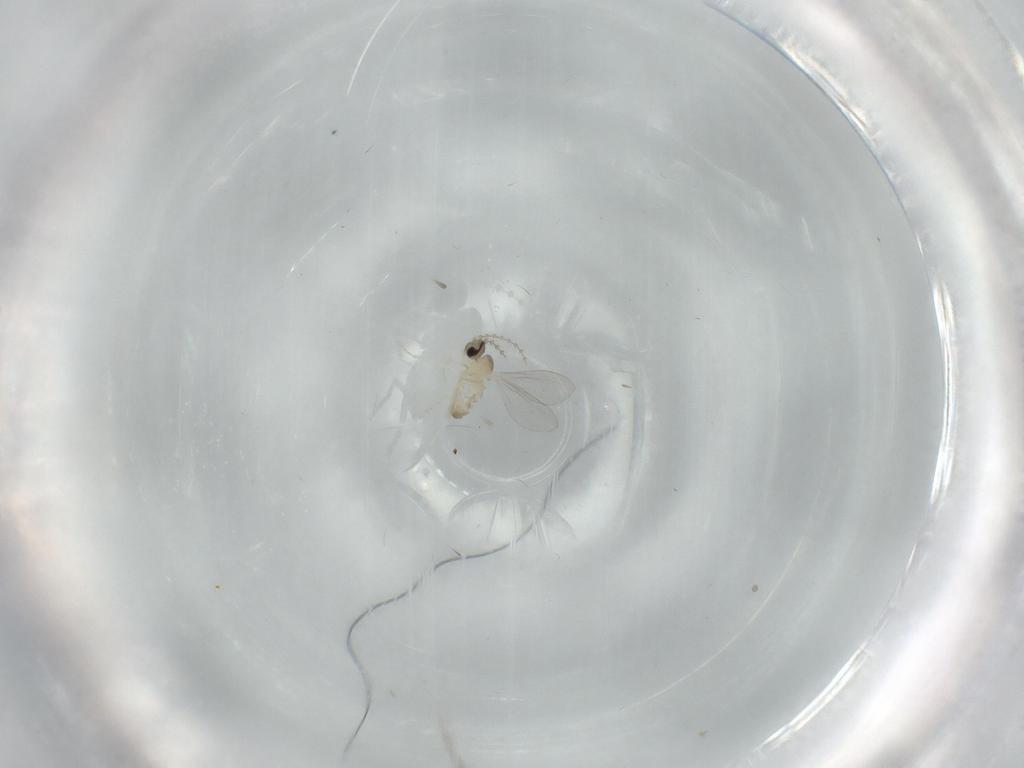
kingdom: Animalia
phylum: Arthropoda
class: Insecta
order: Diptera
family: Cecidomyiidae
